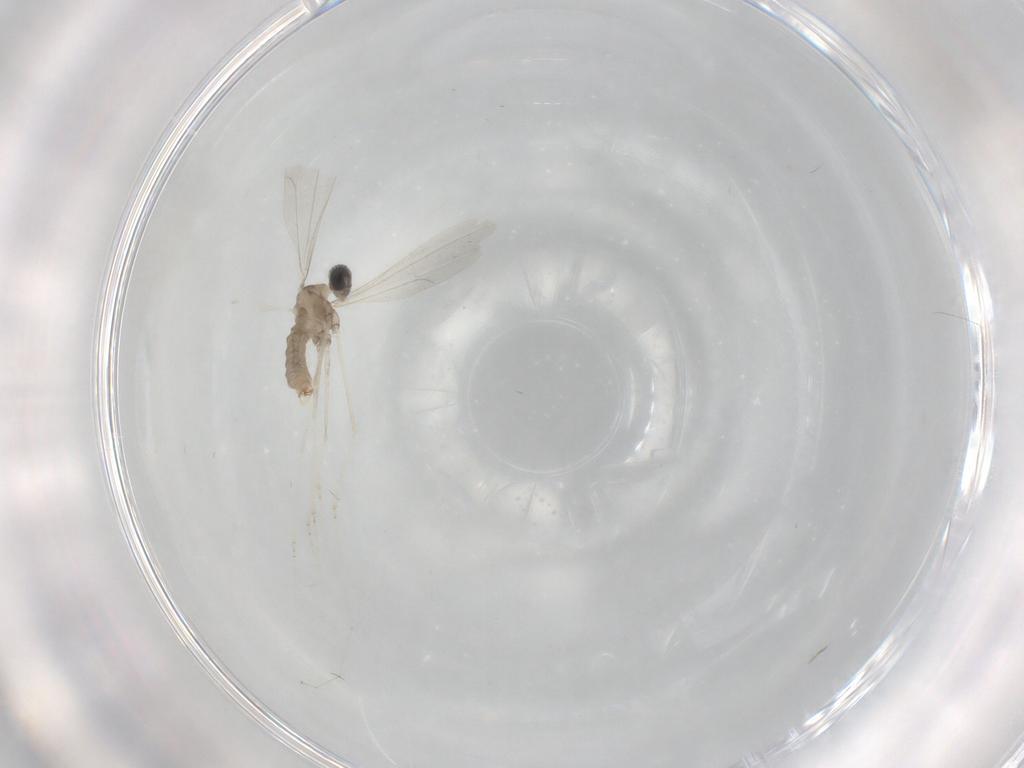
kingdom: Animalia
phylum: Arthropoda
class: Insecta
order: Diptera
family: Cecidomyiidae
